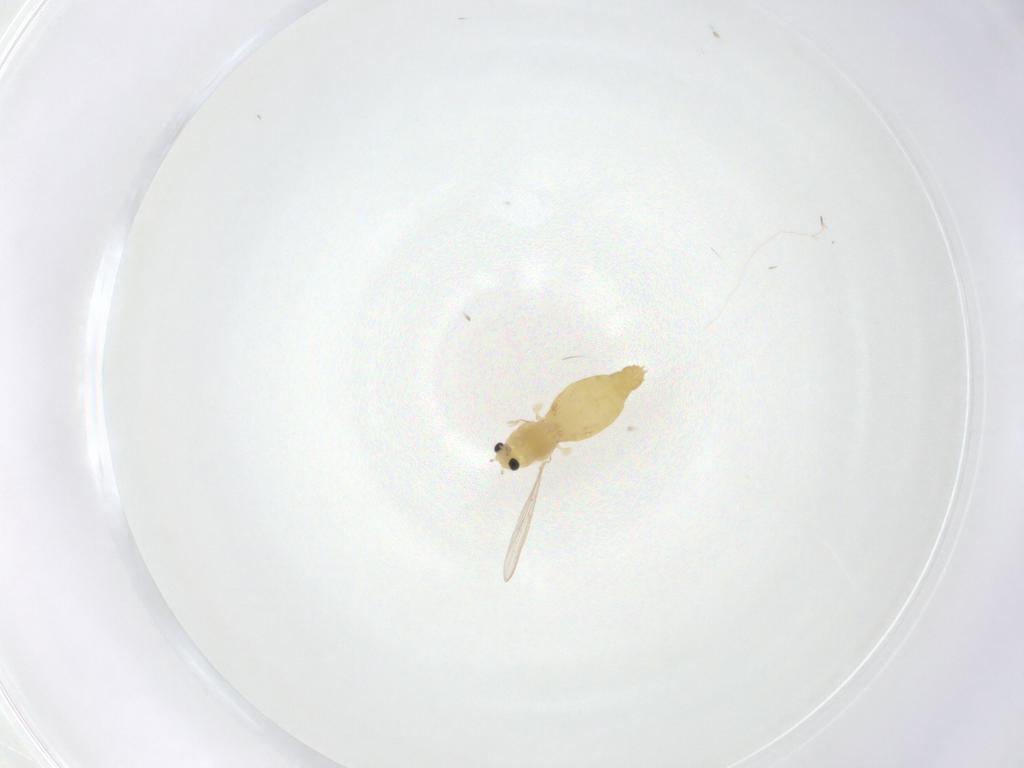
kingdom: Animalia
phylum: Arthropoda
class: Insecta
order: Diptera
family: Chironomidae
